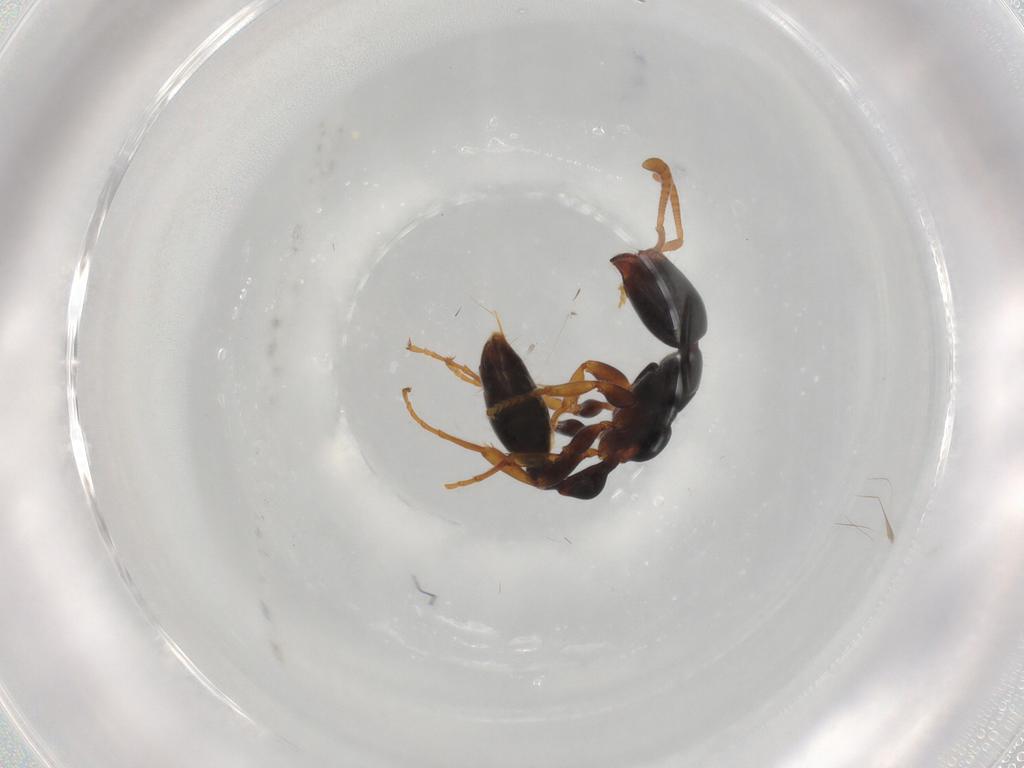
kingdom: Animalia
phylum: Arthropoda
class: Insecta
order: Hymenoptera
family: Formicidae
